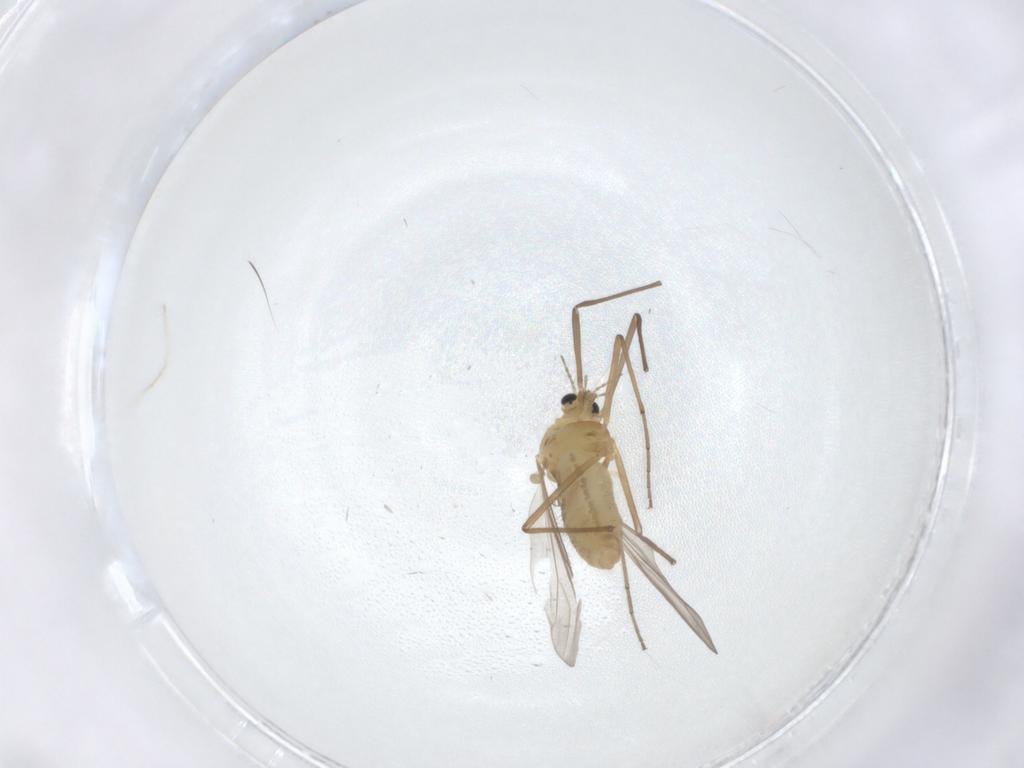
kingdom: Animalia
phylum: Arthropoda
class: Insecta
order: Diptera
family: Chironomidae
